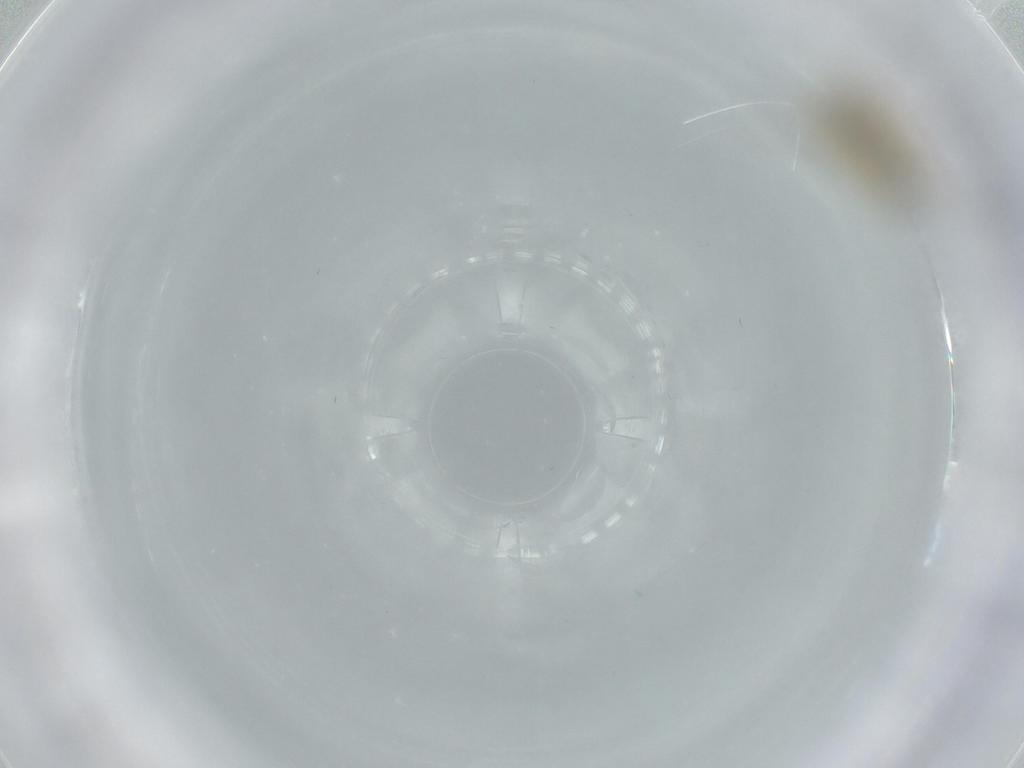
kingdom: Animalia
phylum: Arthropoda
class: Insecta
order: Diptera
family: Chironomidae
